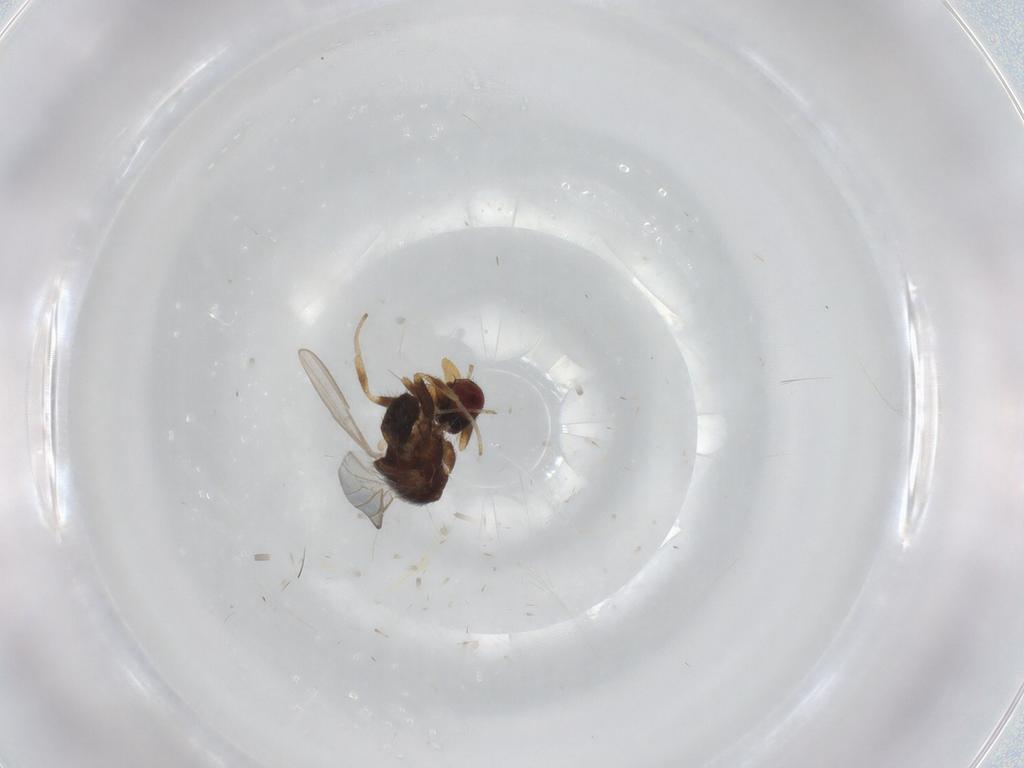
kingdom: Animalia
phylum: Arthropoda
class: Insecta
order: Diptera
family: Milichiidae
